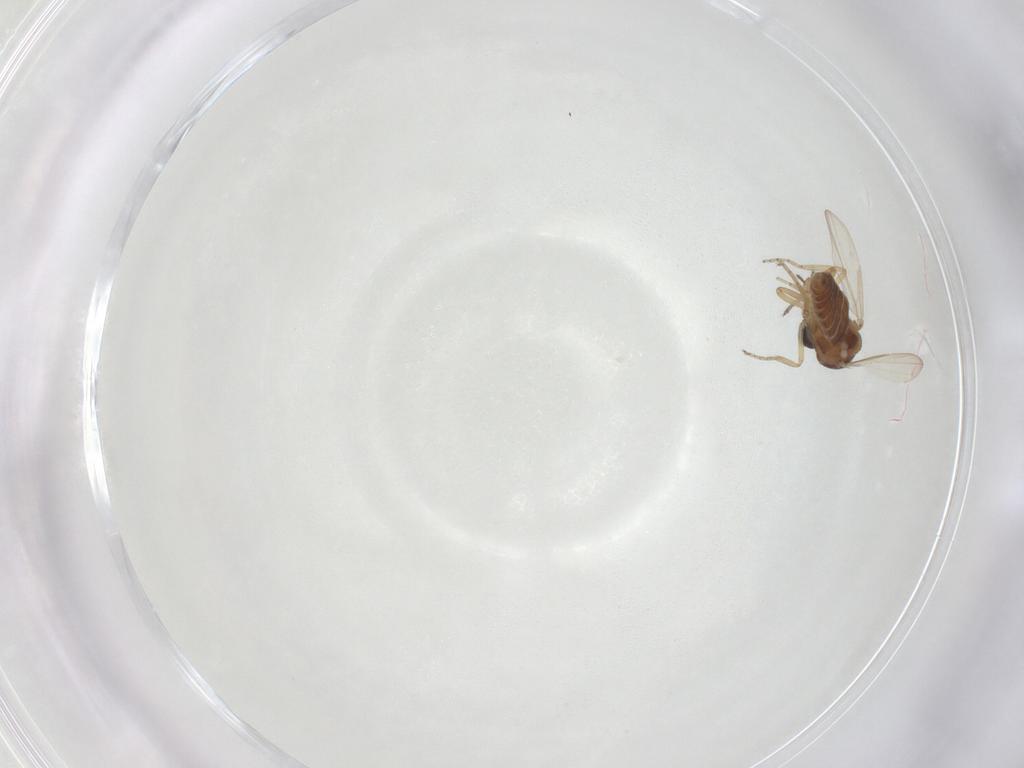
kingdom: Animalia
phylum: Arthropoda
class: Insecta
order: Diptera
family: Ceratopogonidae
